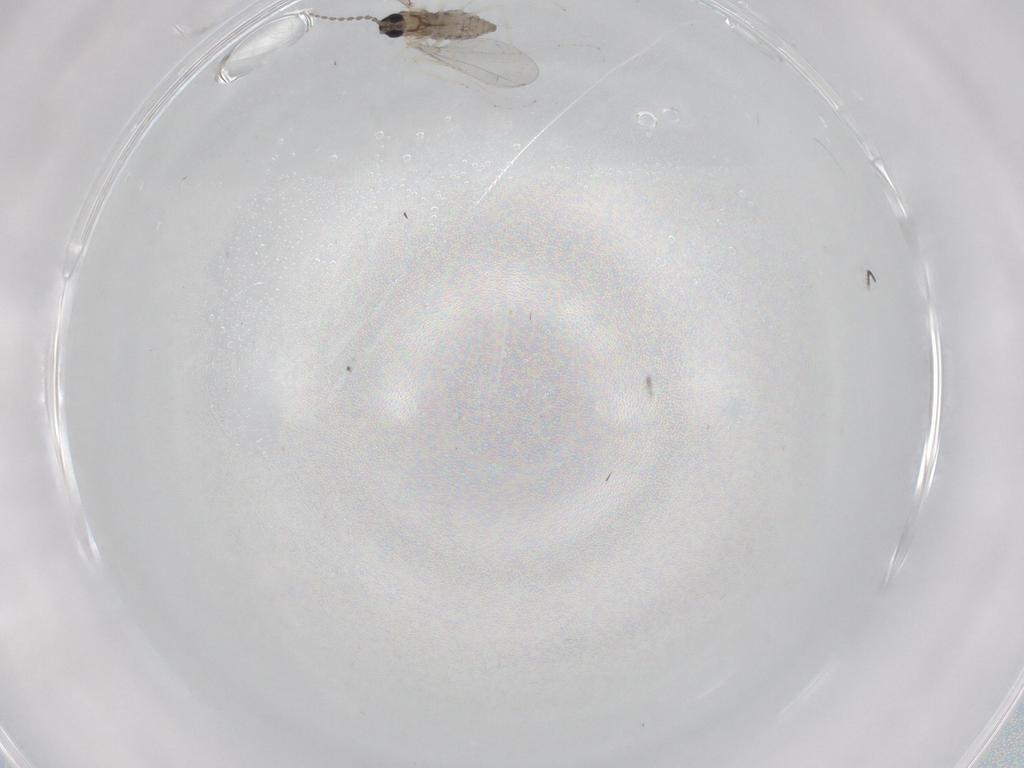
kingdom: Animalia
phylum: Arthropoda
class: Insecta
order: Diptera
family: Cecidomyiidae
